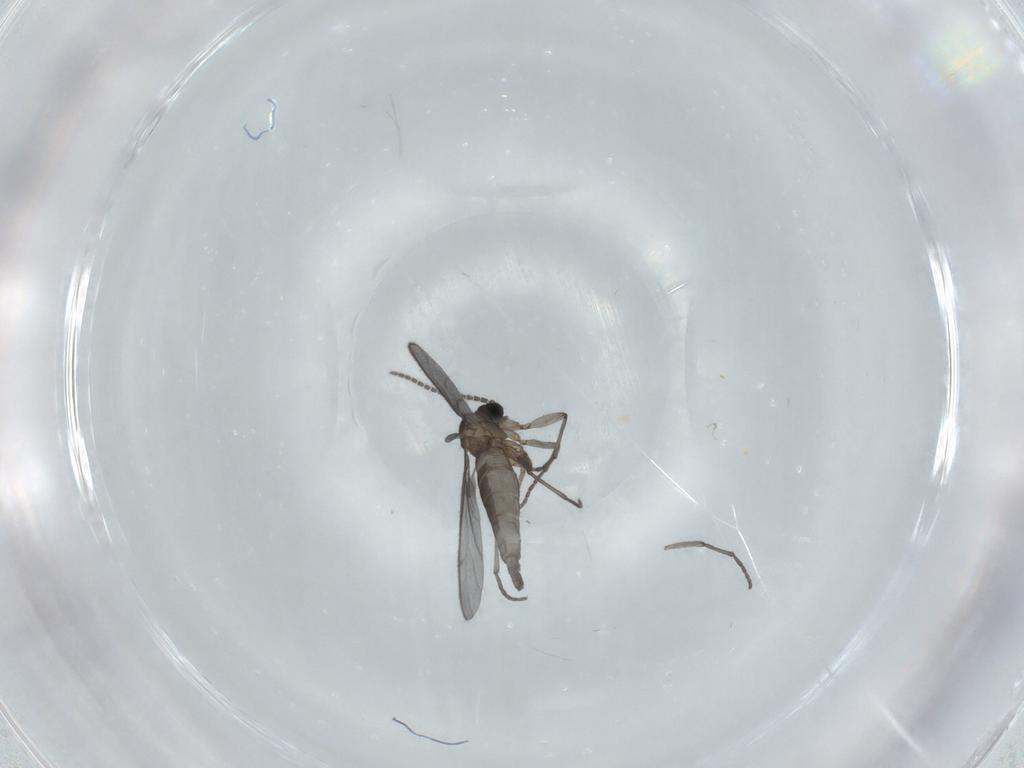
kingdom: Animalia
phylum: Arthropoda
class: Insecta
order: Diptera
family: Sciaridae
